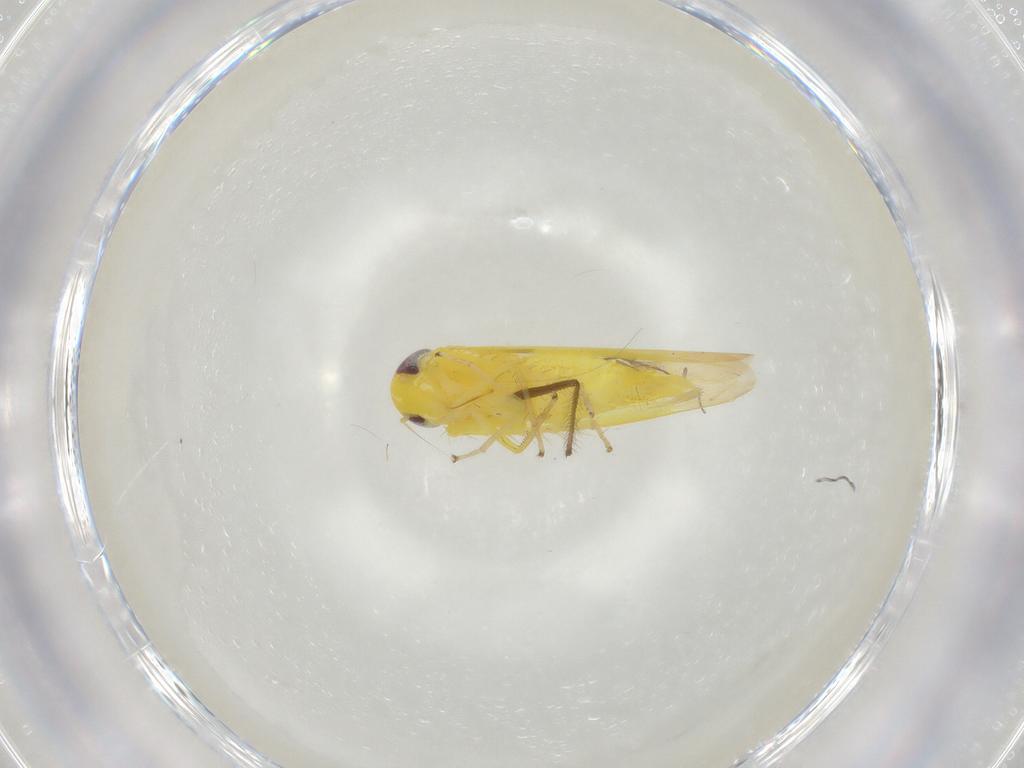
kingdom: Animalia
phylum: Arthropoda
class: Insecta
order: Hemiptera
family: Cicadellidae
